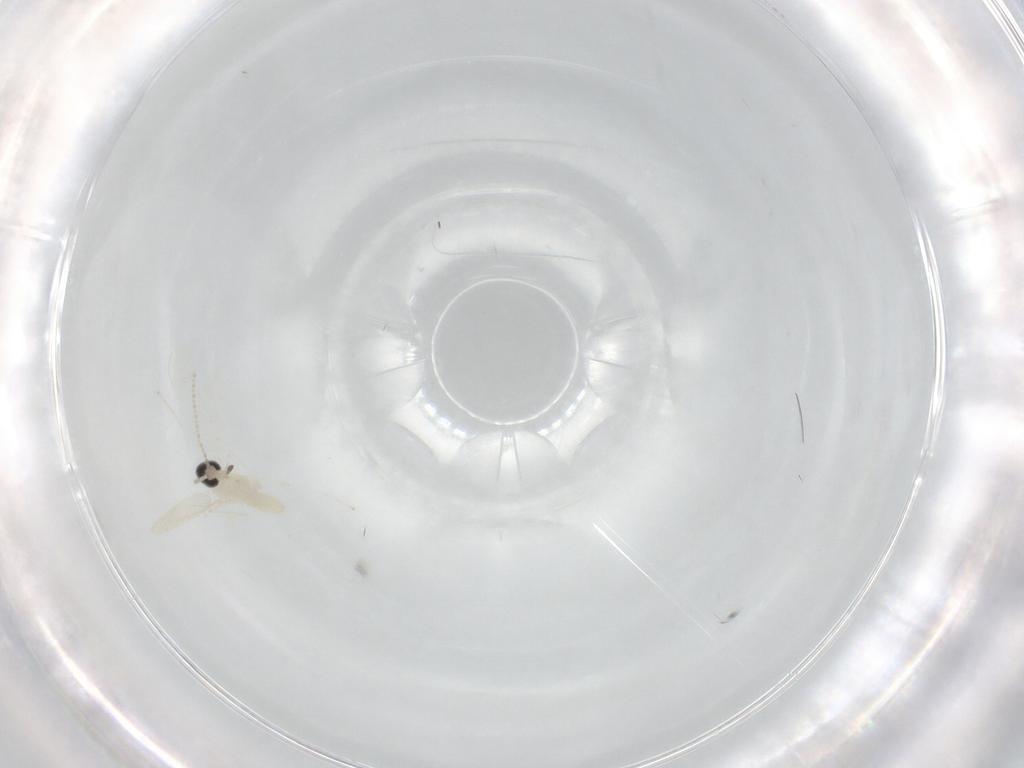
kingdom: Animalia
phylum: Arthropoda
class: Insecta
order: Diptera
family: Cecidomyiidae
